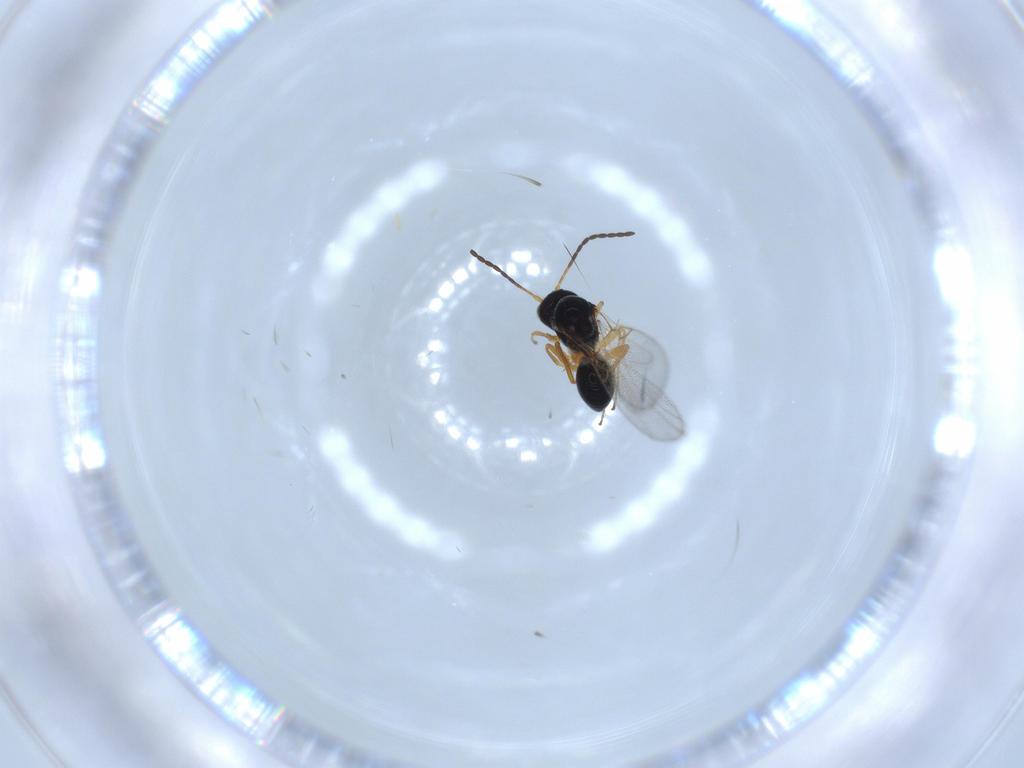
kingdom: Animalia
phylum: Arthropoda
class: Insecta
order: Hymenoptera
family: Figitidae
